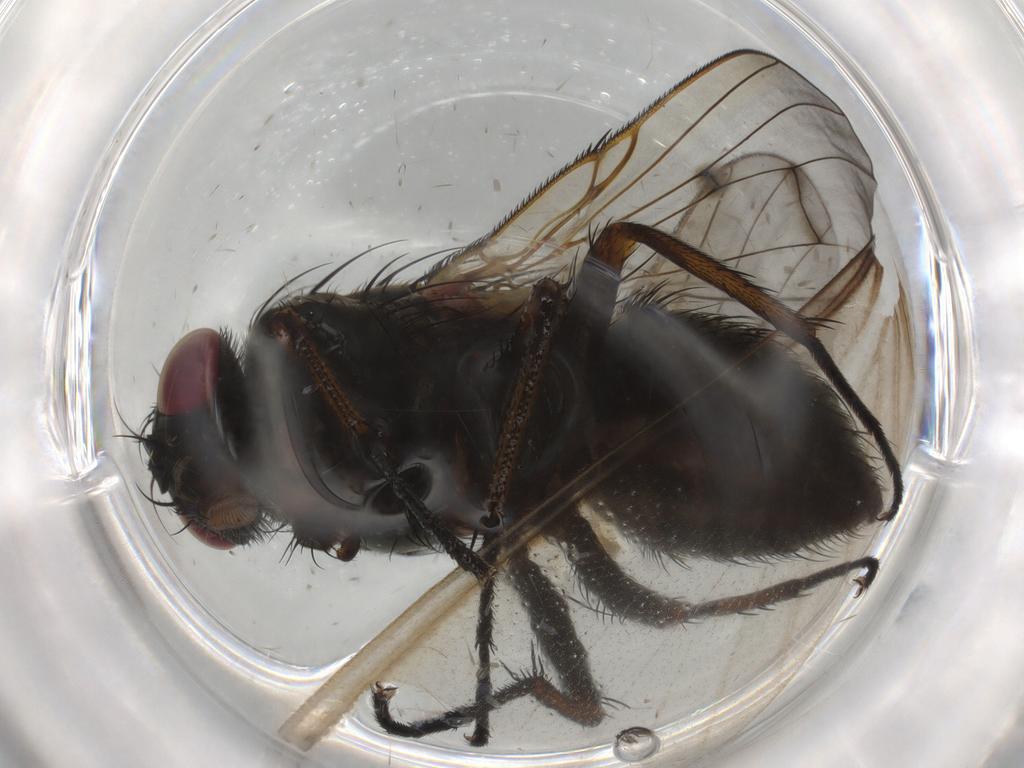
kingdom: Animalia
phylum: Arthropoda
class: Insecta
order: Diptera
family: Muscidae
